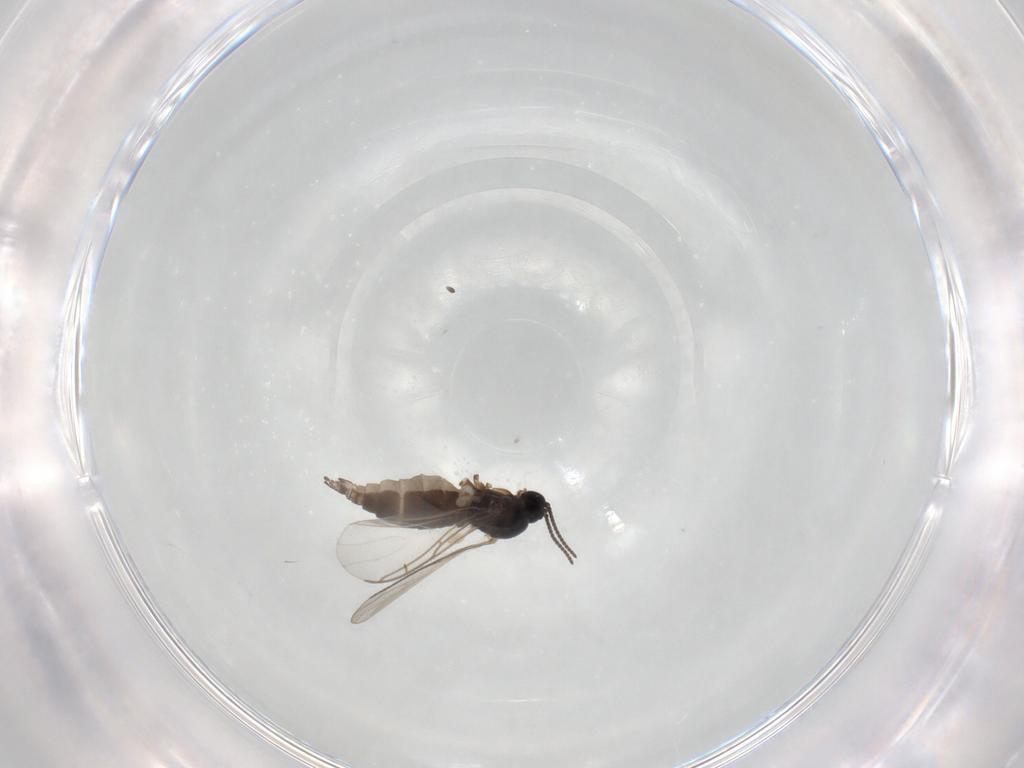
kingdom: Animalia
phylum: Arthropoda
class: Insecta
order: Diptera
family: Sciaridae
